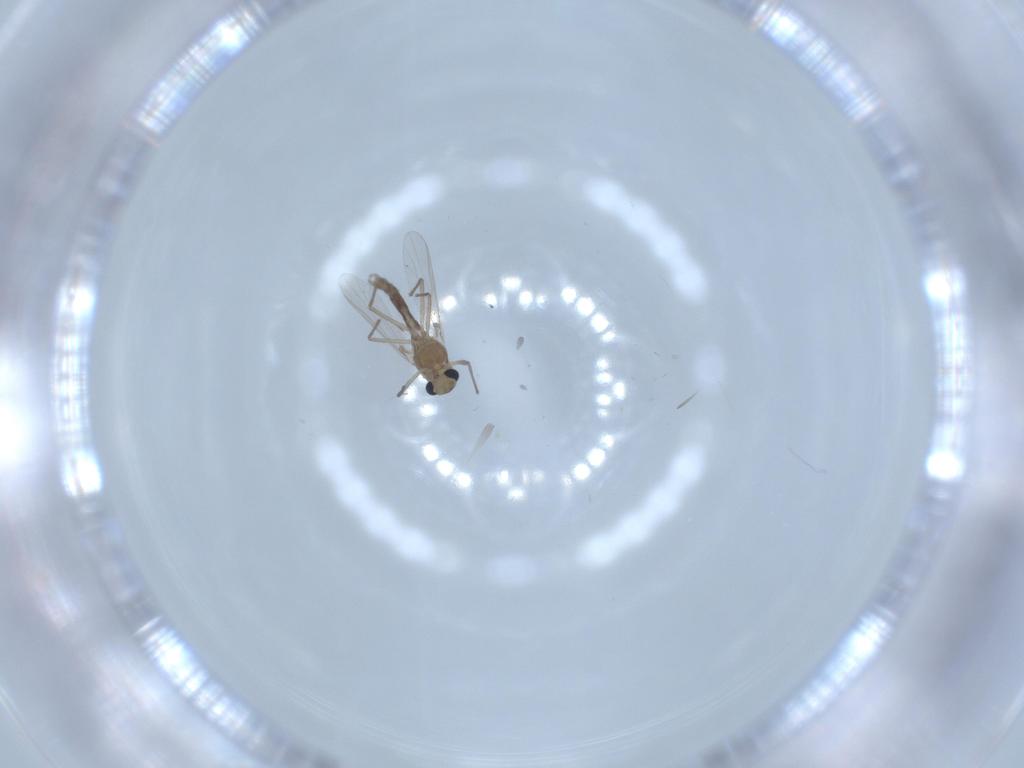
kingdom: Animalia
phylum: Arthropoda
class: Insecta
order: Diptera
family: Chironomidae
